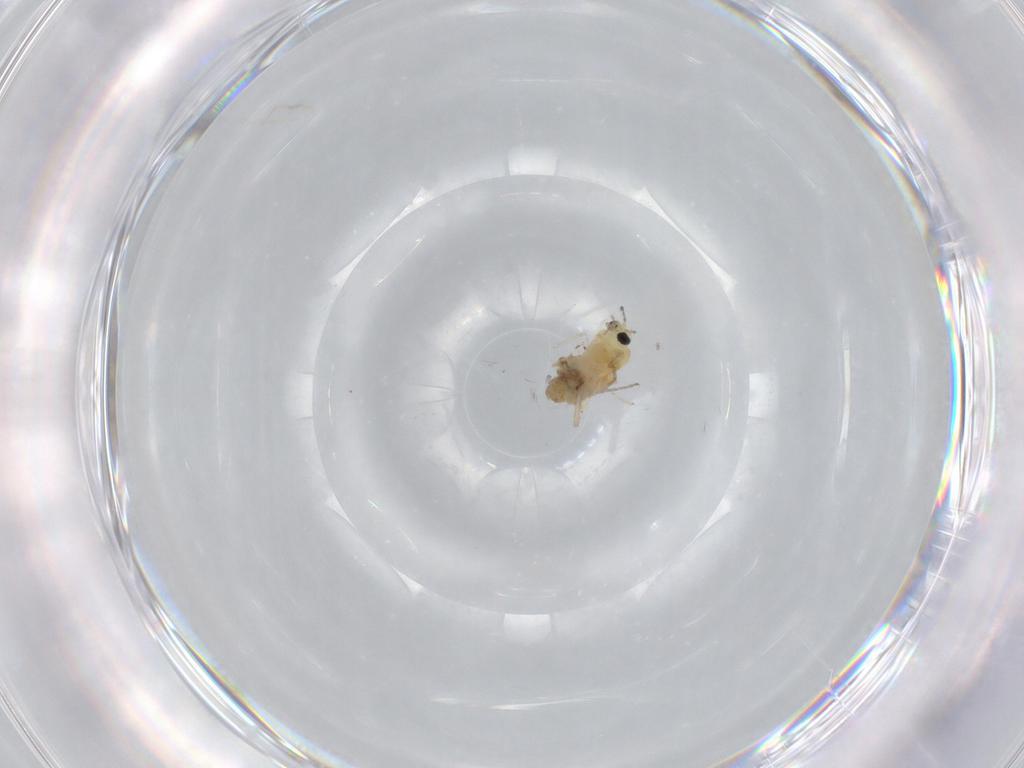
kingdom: Animalia
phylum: Arthropoda
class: Insecta
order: Diptera
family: Chironomidae
